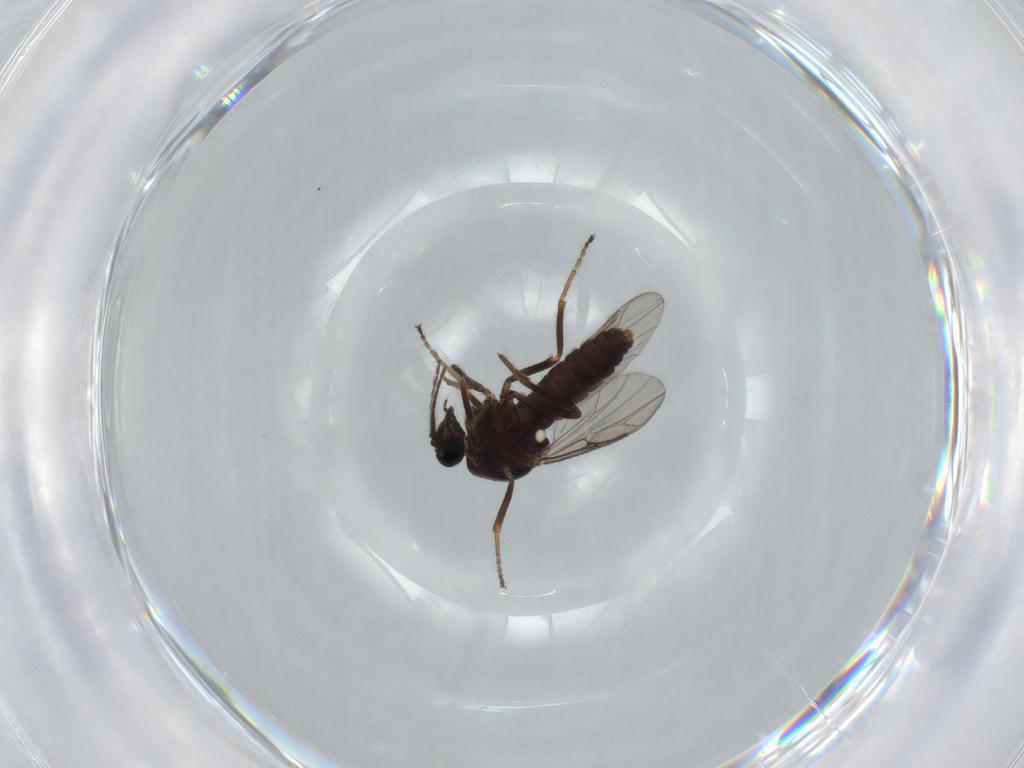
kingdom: Animalia
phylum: Arthropoda
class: Insecta
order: Diptera
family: Ceratopogonidae
